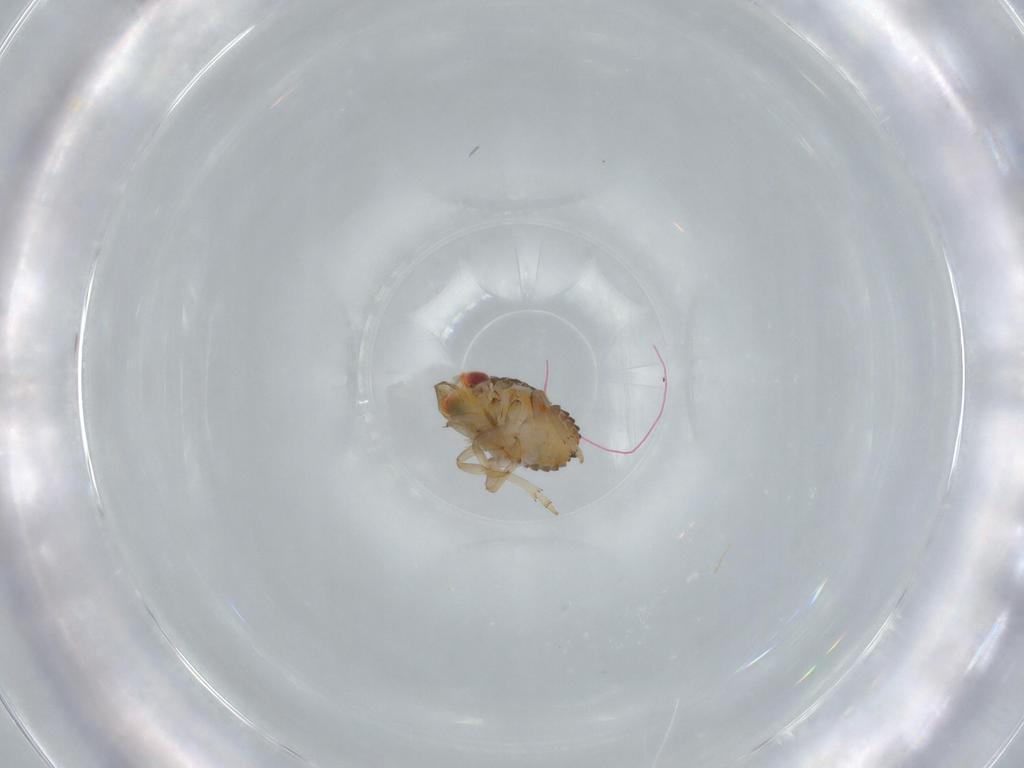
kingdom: Animalia
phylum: Arthropoda
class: Insecta
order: Hemiptera
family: Issidae
